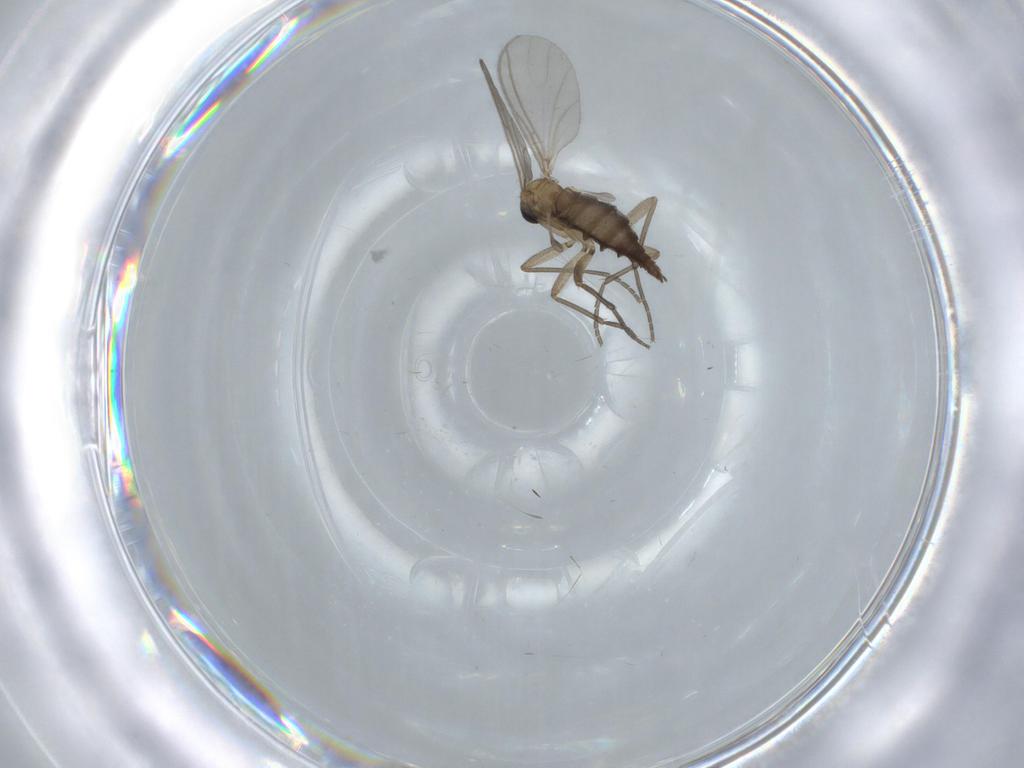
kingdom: Animalia
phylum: Arthropoda
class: Insecta
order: Diptera
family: Sciaridae
